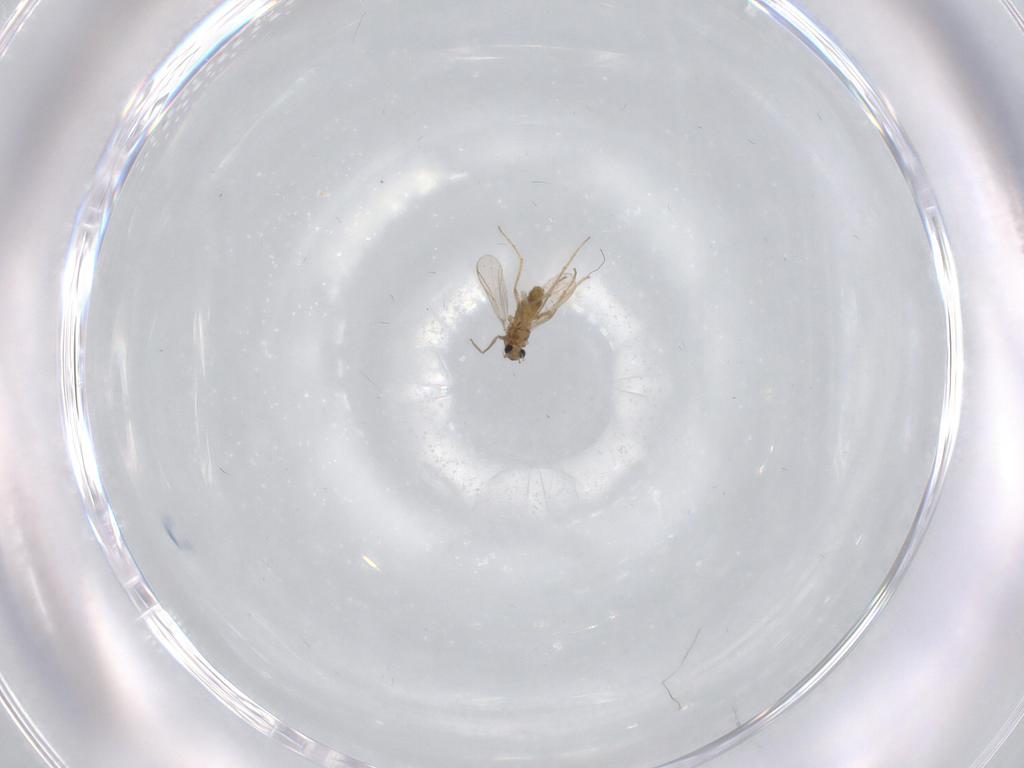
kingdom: Animalia
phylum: Arthropoda
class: Insecta
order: Diptera
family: Chironomidae
